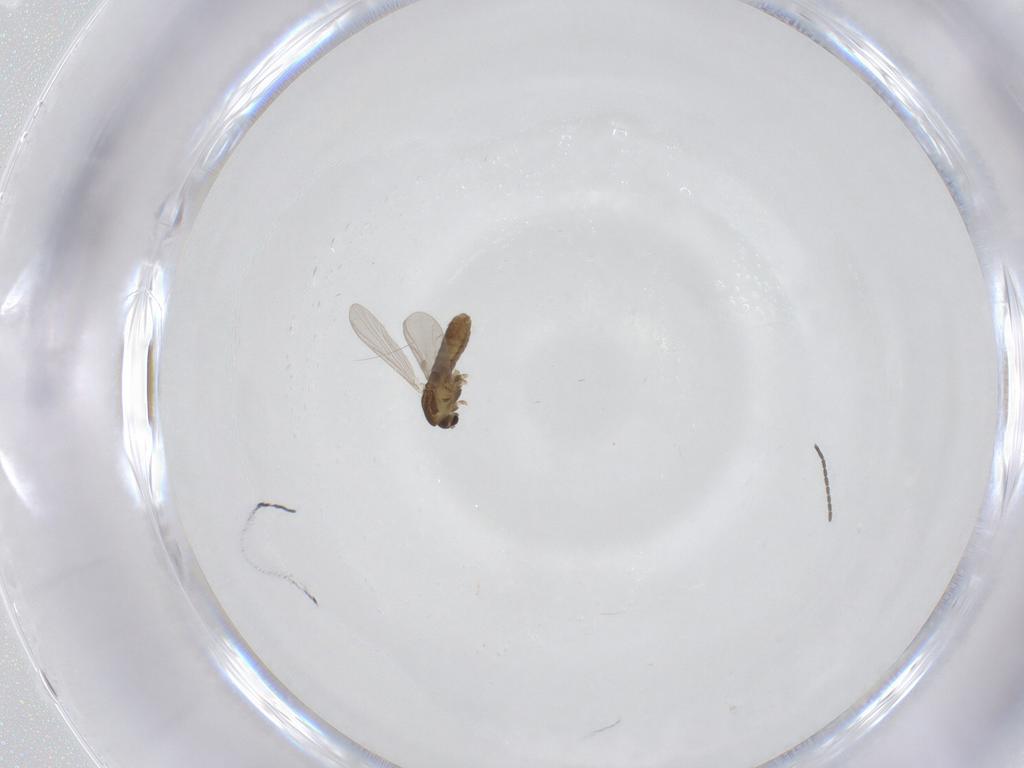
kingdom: Animalia
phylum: Arthropoda
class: Insecta
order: Diptera
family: Chironomidae
